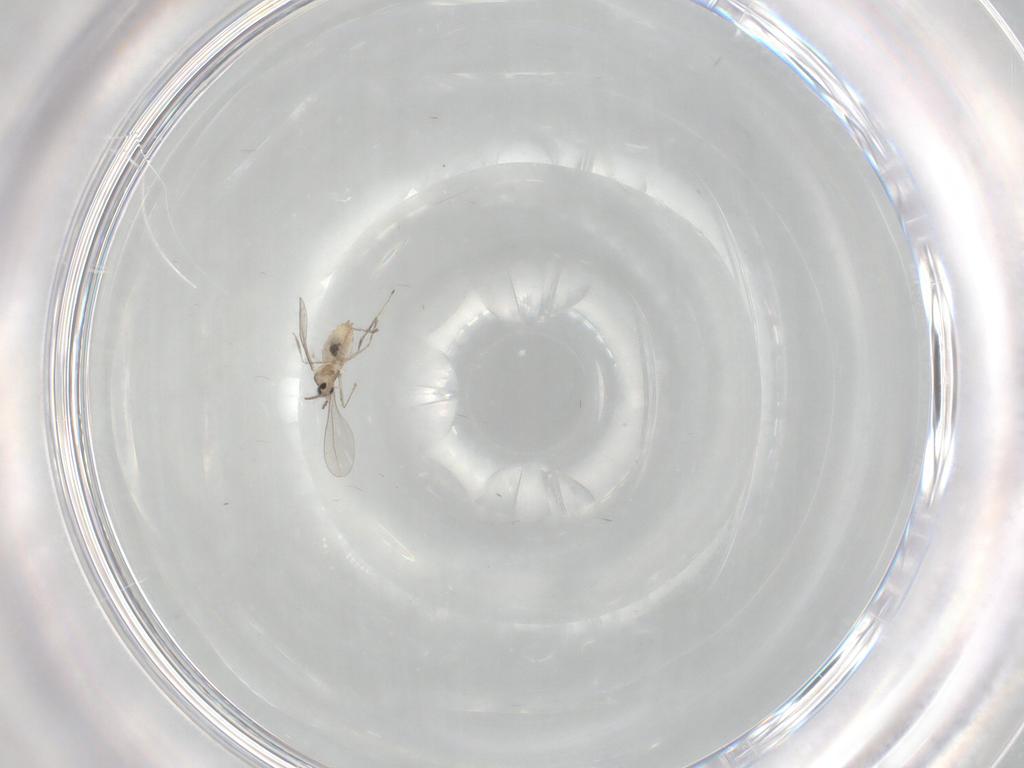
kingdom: Animalia
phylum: Arthropoda
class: Insecta
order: Diptera
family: Cecidomyiidae
